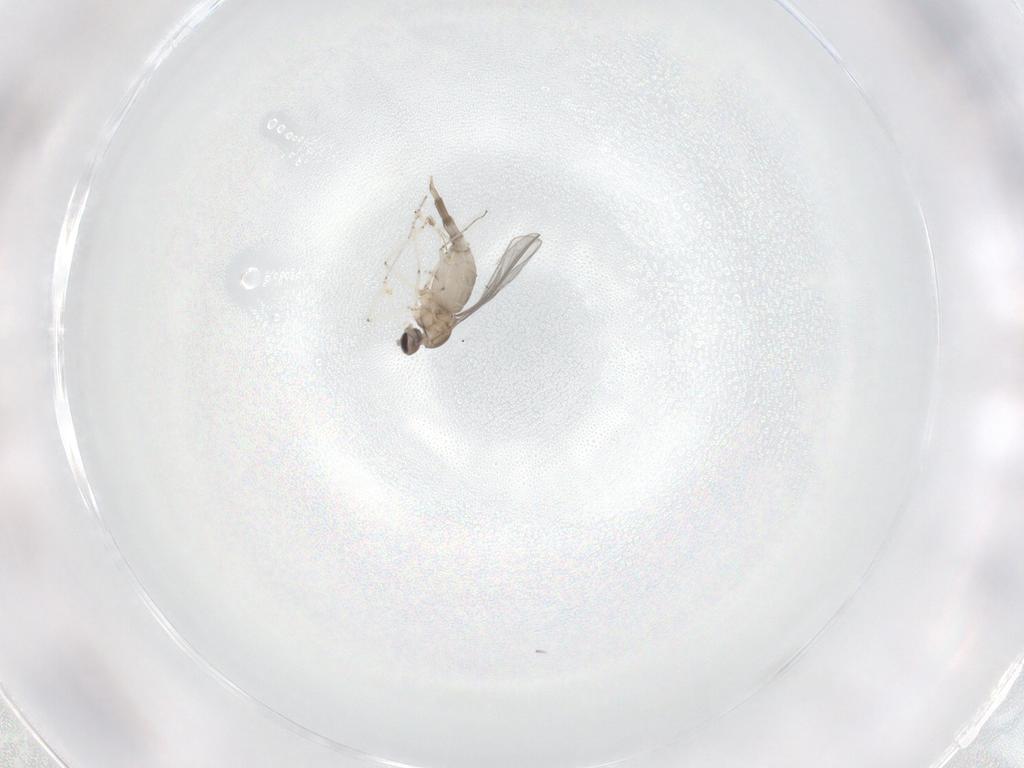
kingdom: Animalia
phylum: Arthropoda
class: Insecta
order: Diptera
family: Cecidomyiidae
